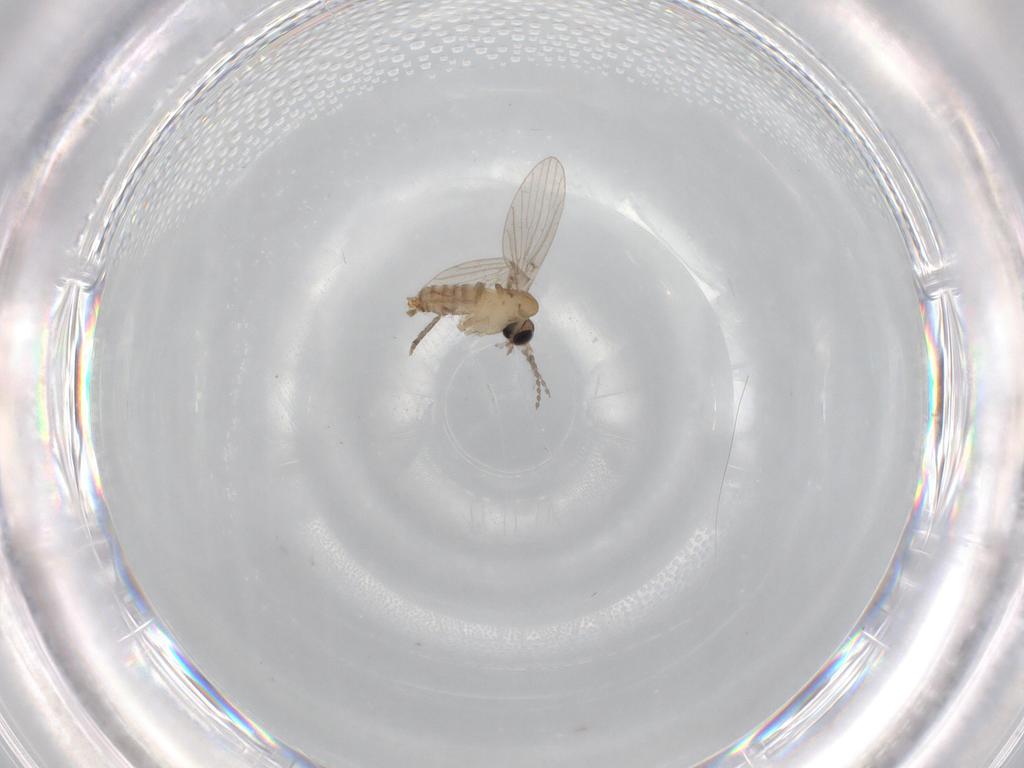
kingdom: Animalia
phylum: Arthropoda
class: Insecta
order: Diptera
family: Psychodidae
